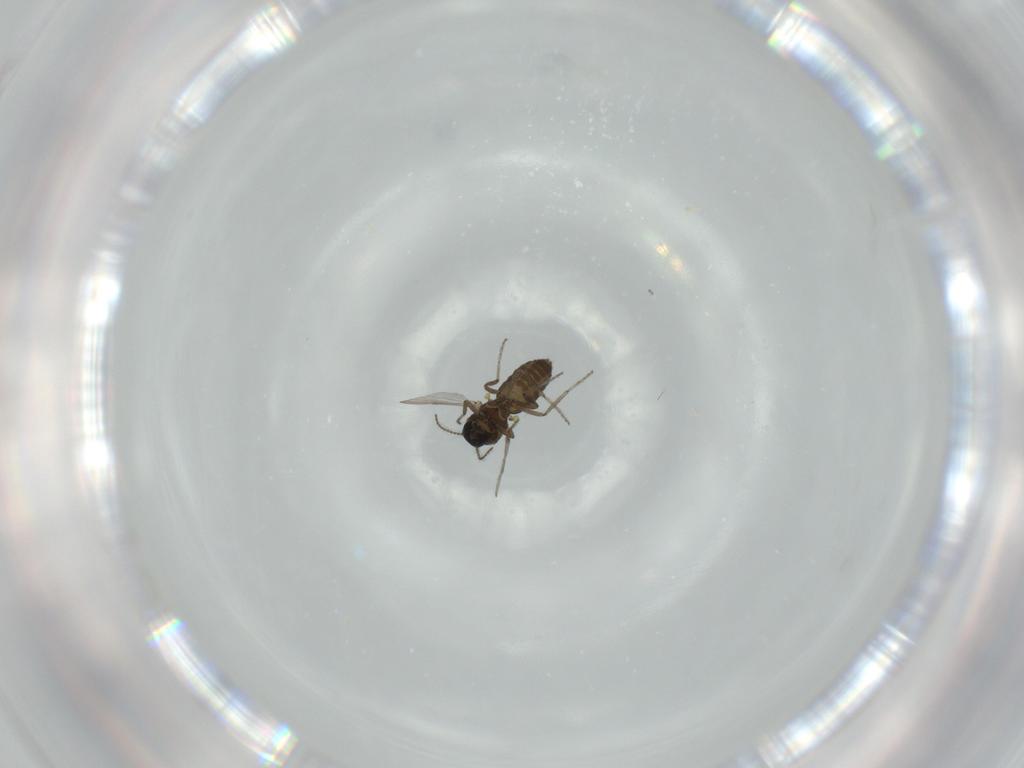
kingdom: Animalia
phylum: Arthropoda
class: Insecta
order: Diptera
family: Ceratopogonidae
